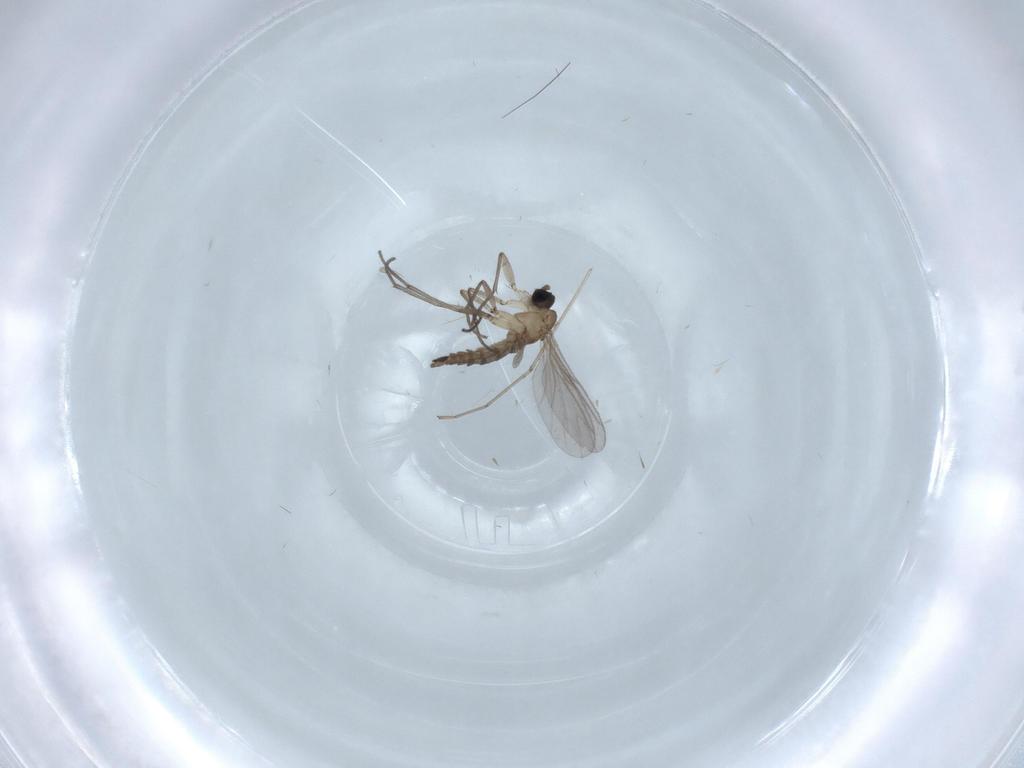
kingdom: Animalia
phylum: Arthropoda
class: Insecta
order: Diptera
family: Sciaridae
